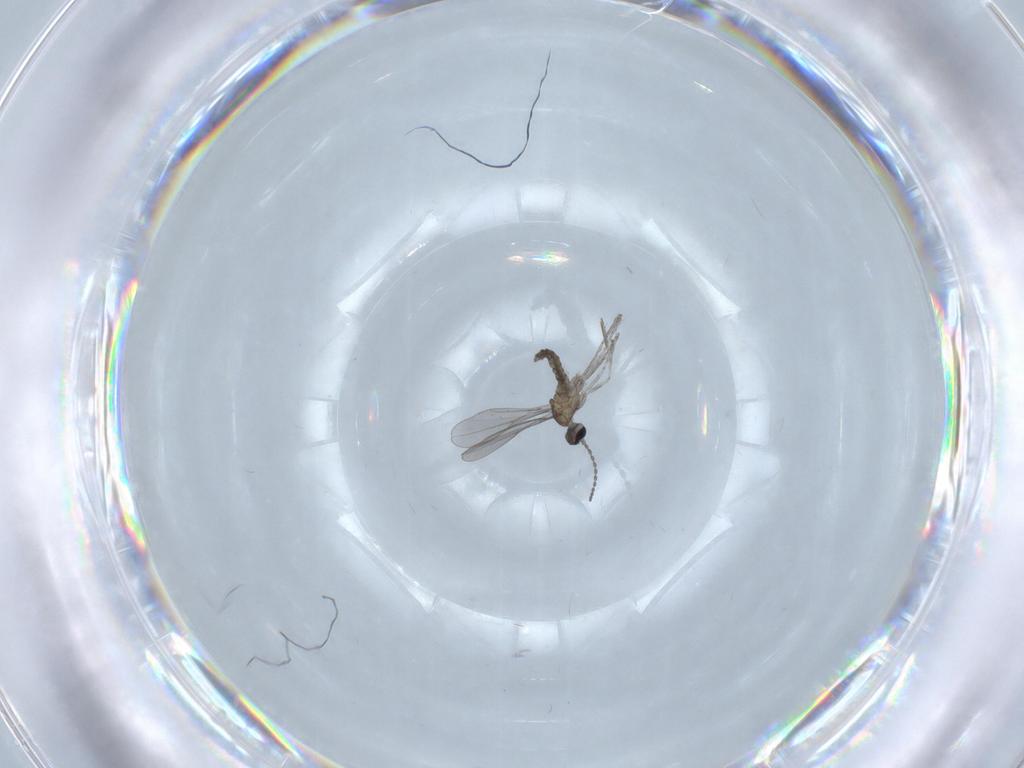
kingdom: Animalia
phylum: Arthropoda
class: Insecta
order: Diptera
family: Cecidomyiidae
